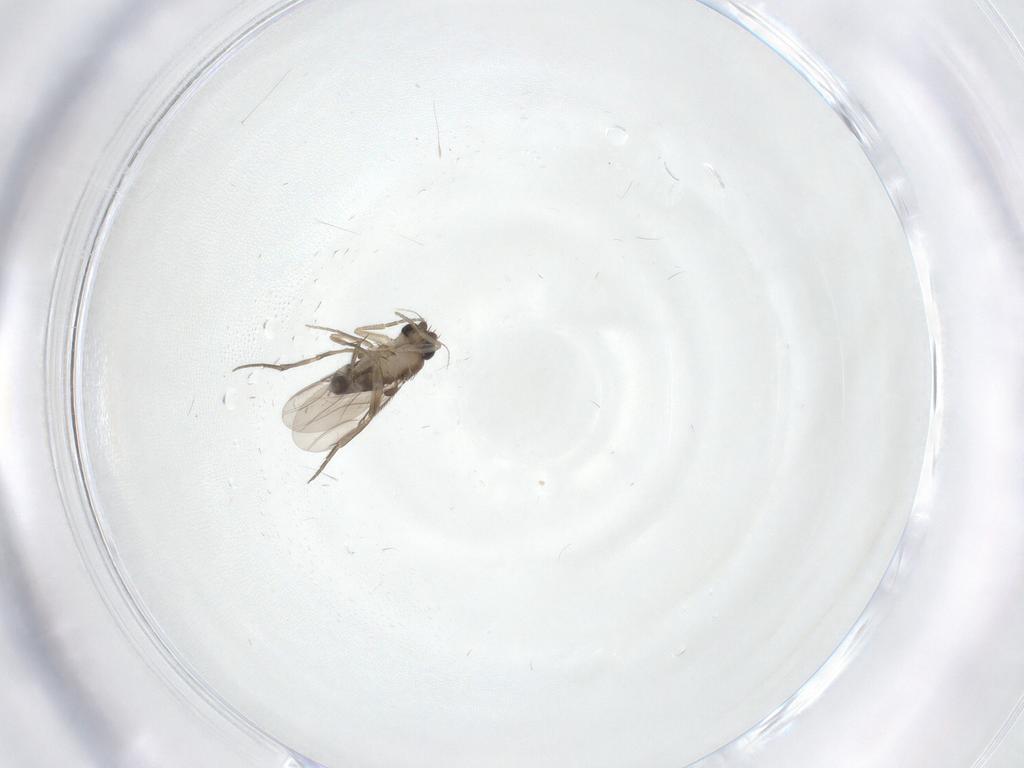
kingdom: Animalia
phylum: Arthropoda
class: Insecta
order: Diptera
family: Phoridae
